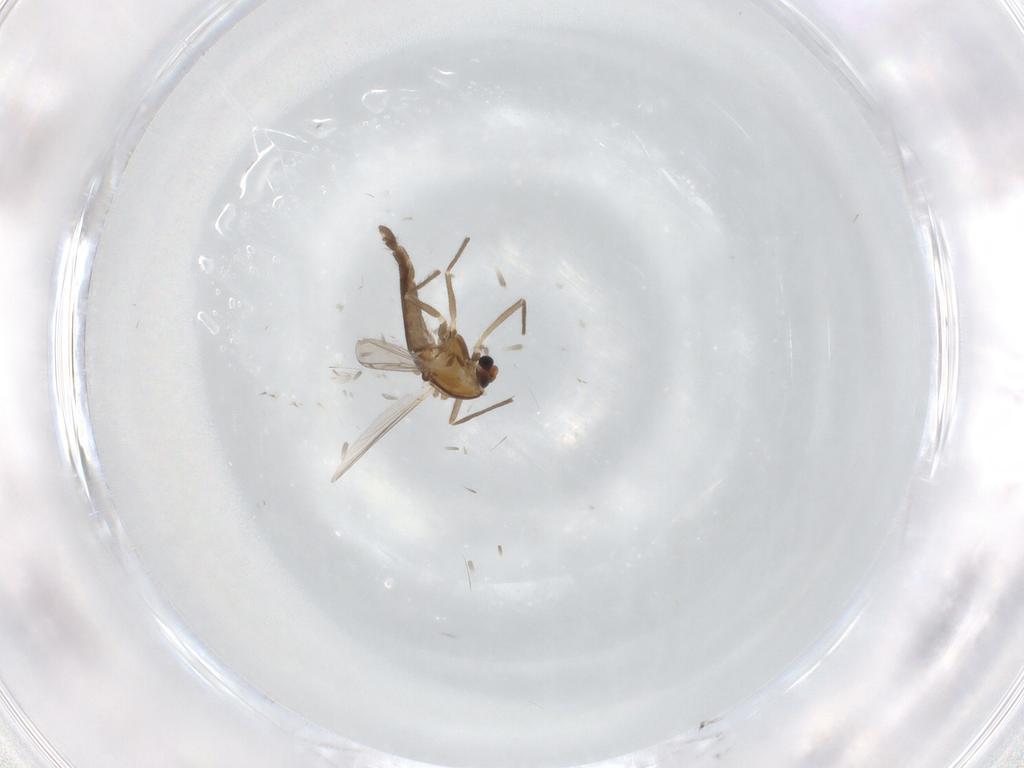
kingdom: Animalia
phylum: Arthropoda
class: Insecta
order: Diptera
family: Chironomidae
